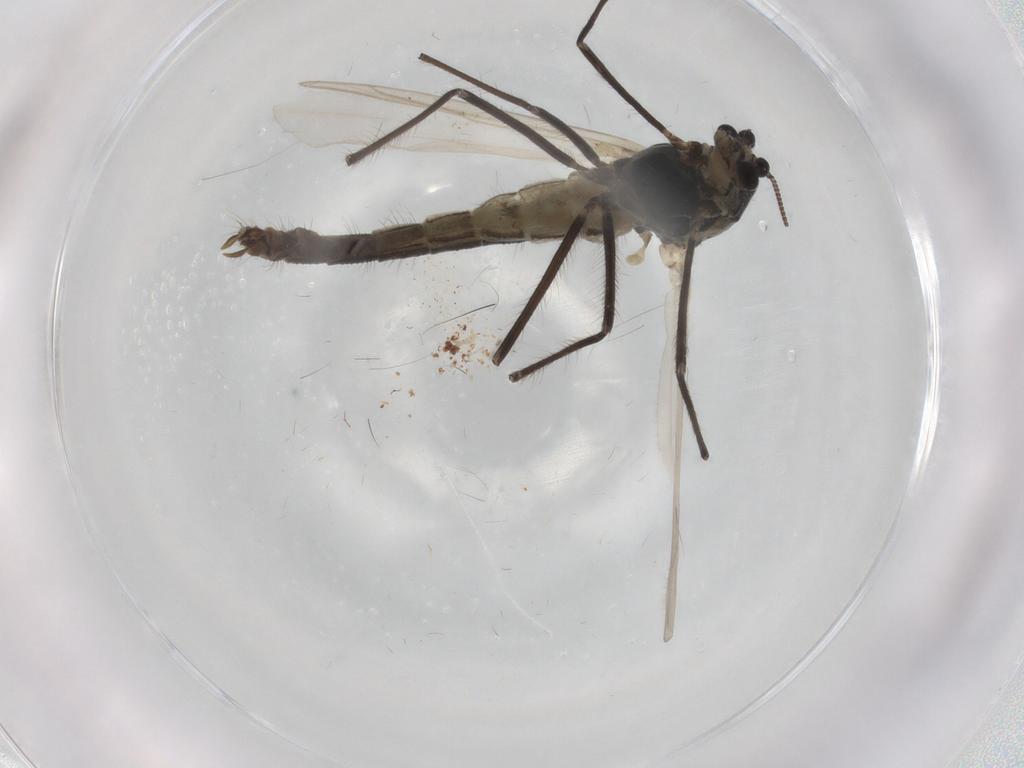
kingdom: Animalia
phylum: Arthropoda
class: Insecta
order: Diptera
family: Chironomidae
